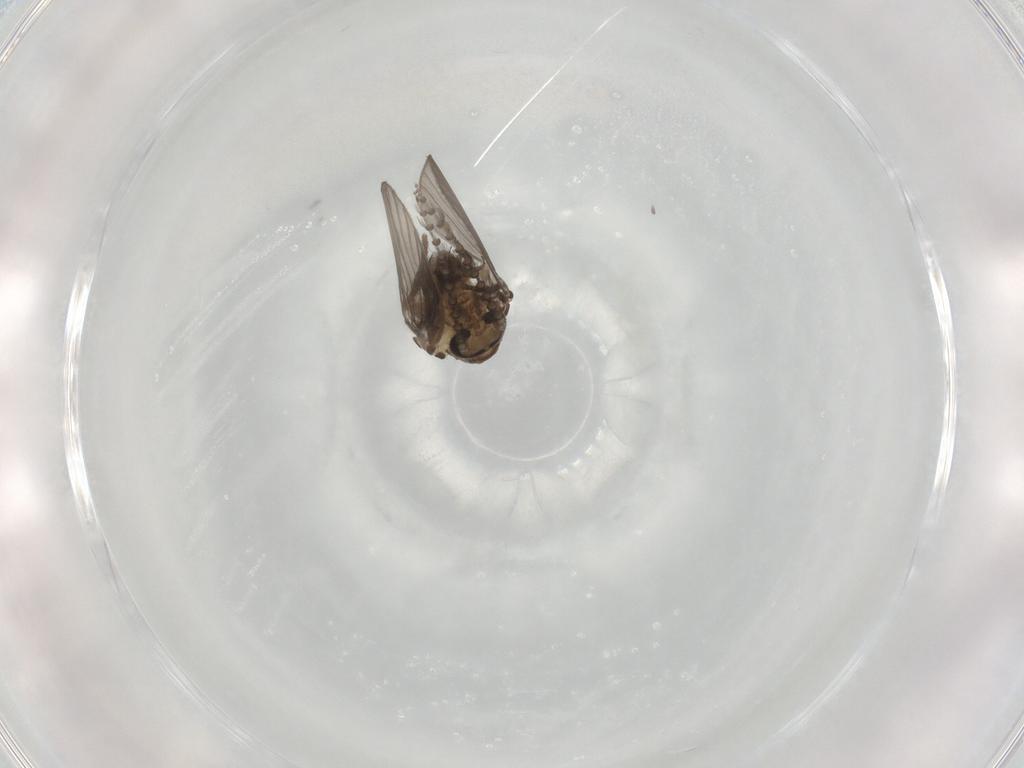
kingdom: Animalia
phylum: Arthropoda
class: Insecta
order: Diptera
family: Psychodidae
